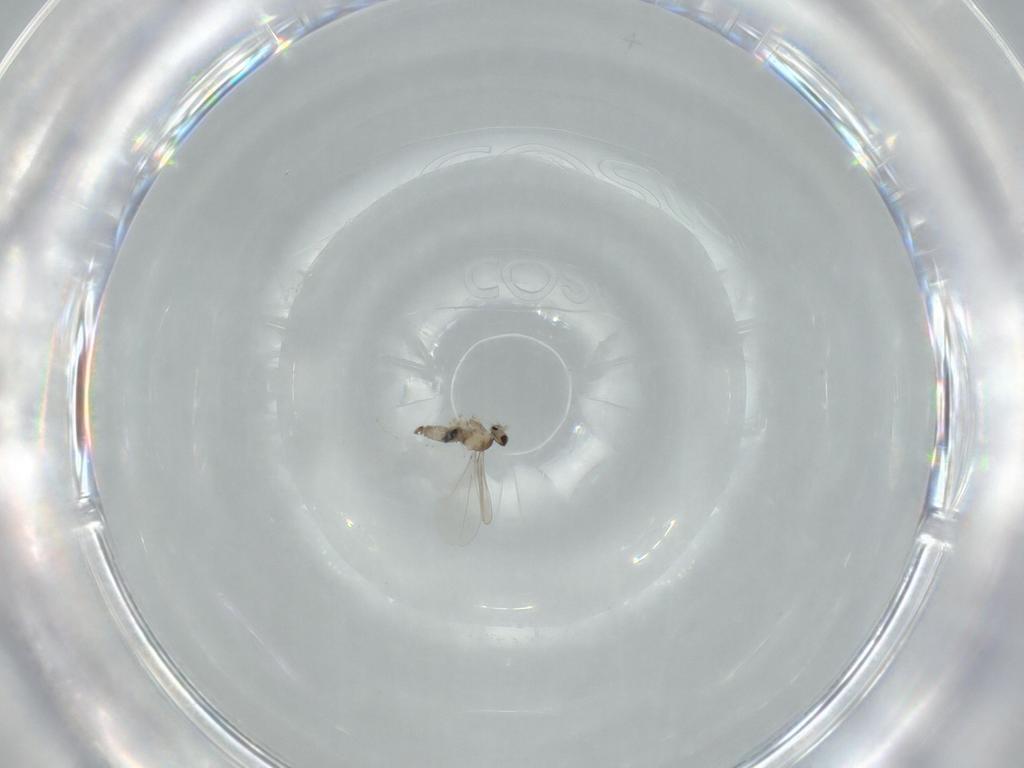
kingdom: Animalia
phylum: Arthropoda
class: Insecta
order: Diptera
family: Cecidomyiidae
